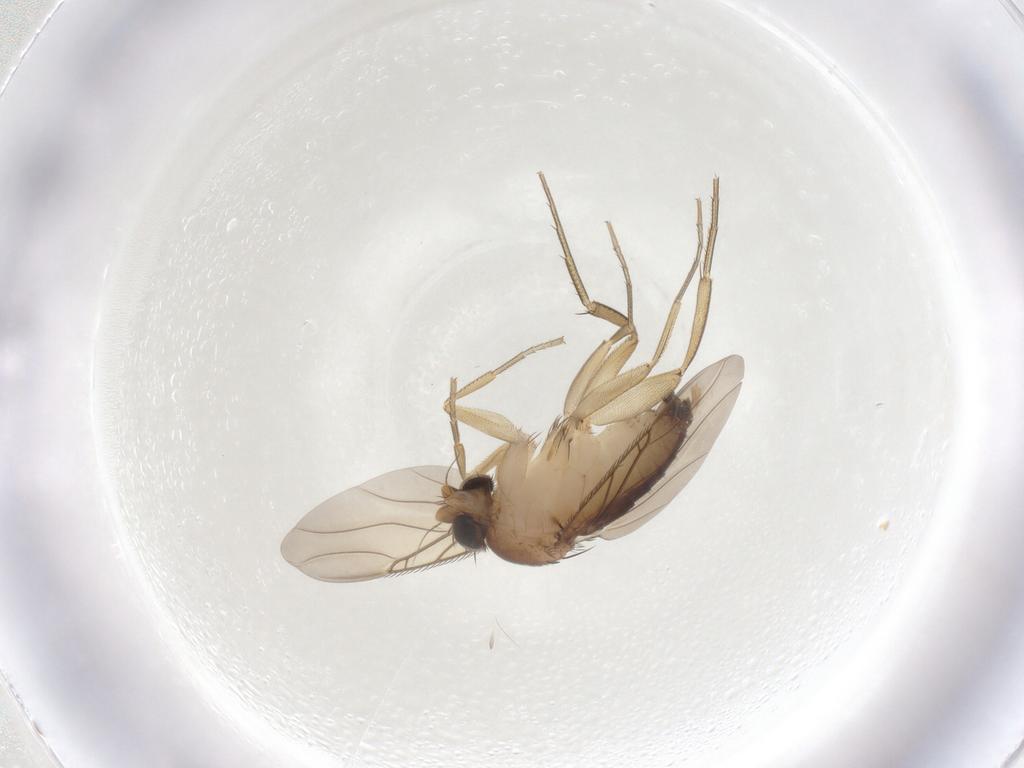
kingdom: Animalia
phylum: Arthropoda
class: Insecta
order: Diptera
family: Phoridae
